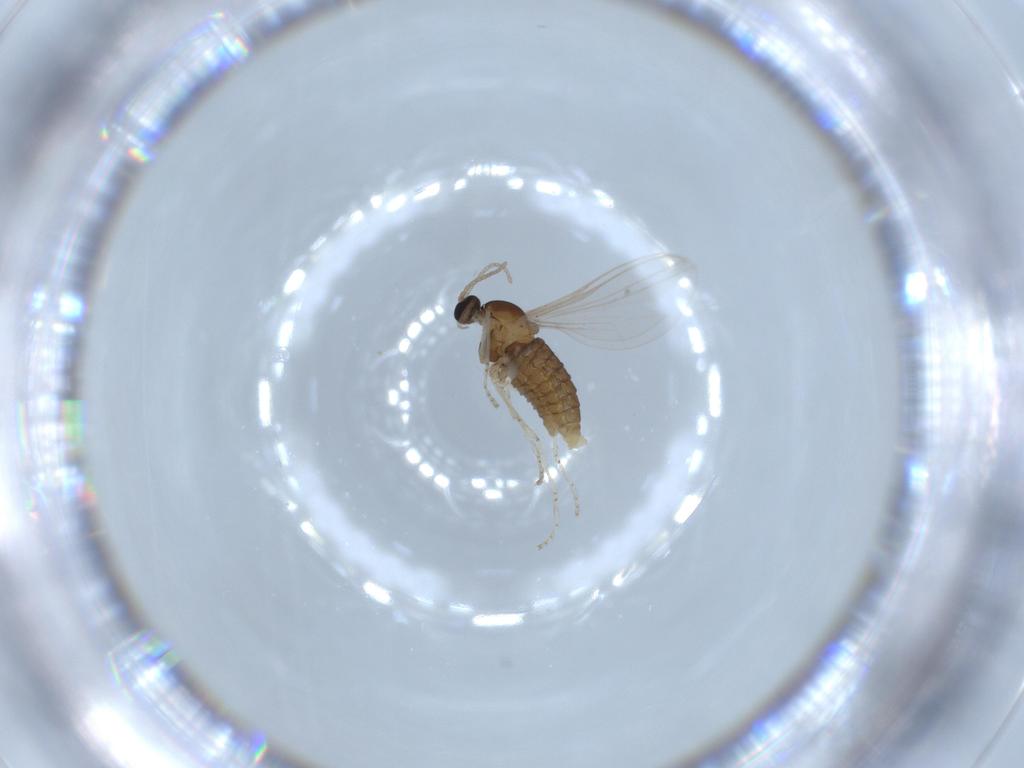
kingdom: Animalia
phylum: Arthropoda
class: Insecta
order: Diptera
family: Cecidomyiidae
